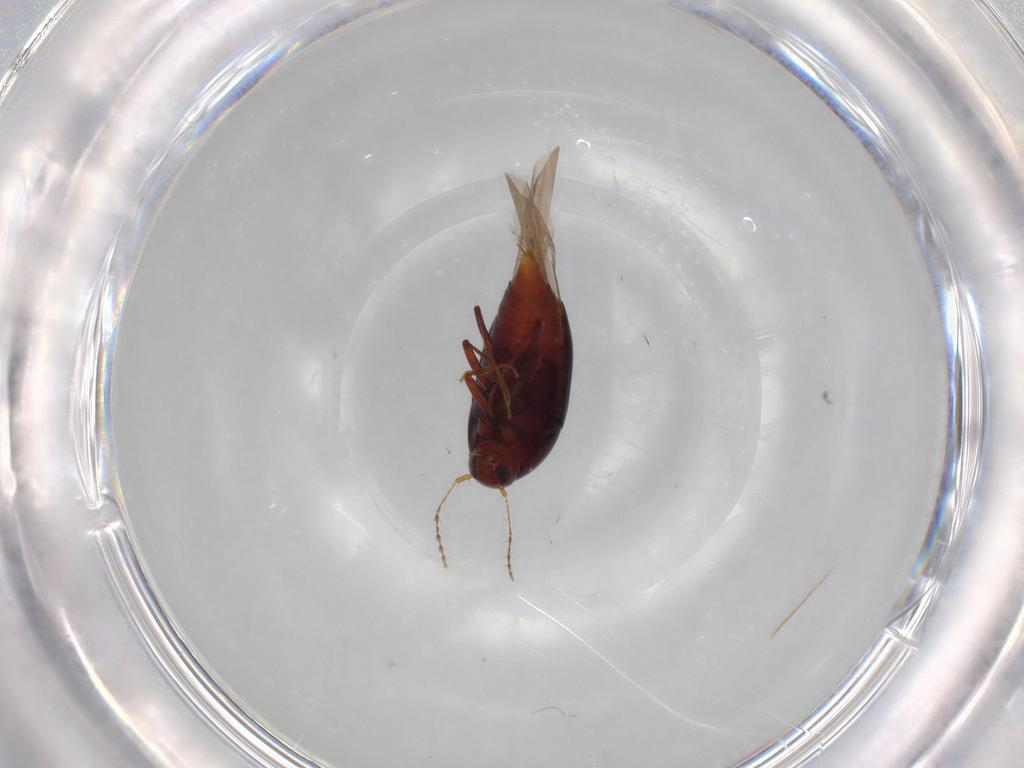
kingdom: Animalia
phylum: Arthropoda
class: Insecta
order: Coleoptera
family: Staphylinidae
